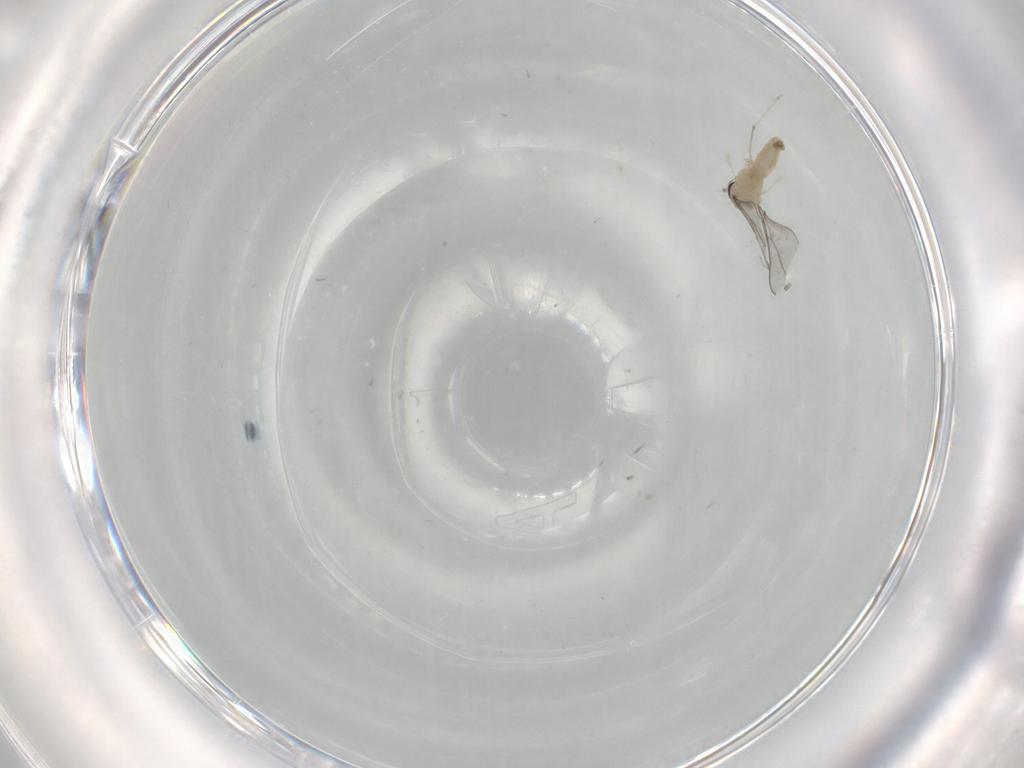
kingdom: Animalia
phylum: Arthropoda
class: Insecta
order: Diptera
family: Psychodidae
